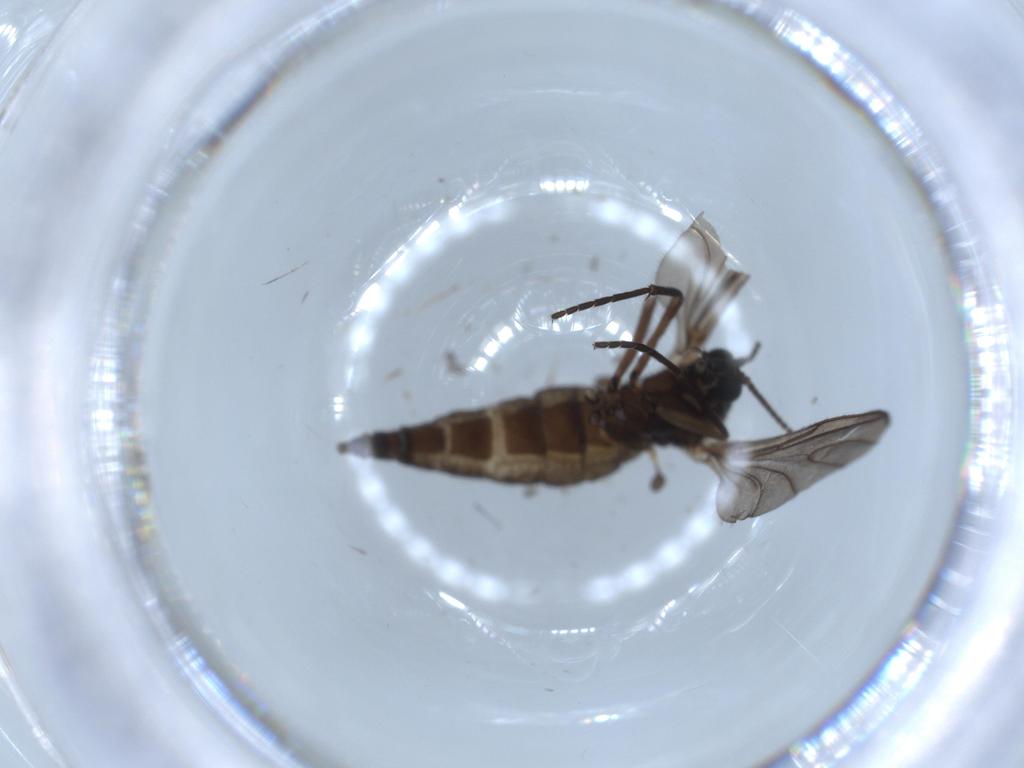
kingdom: Animalia
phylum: Arthropoda
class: Insecta
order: Diptera
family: Sciaridae
